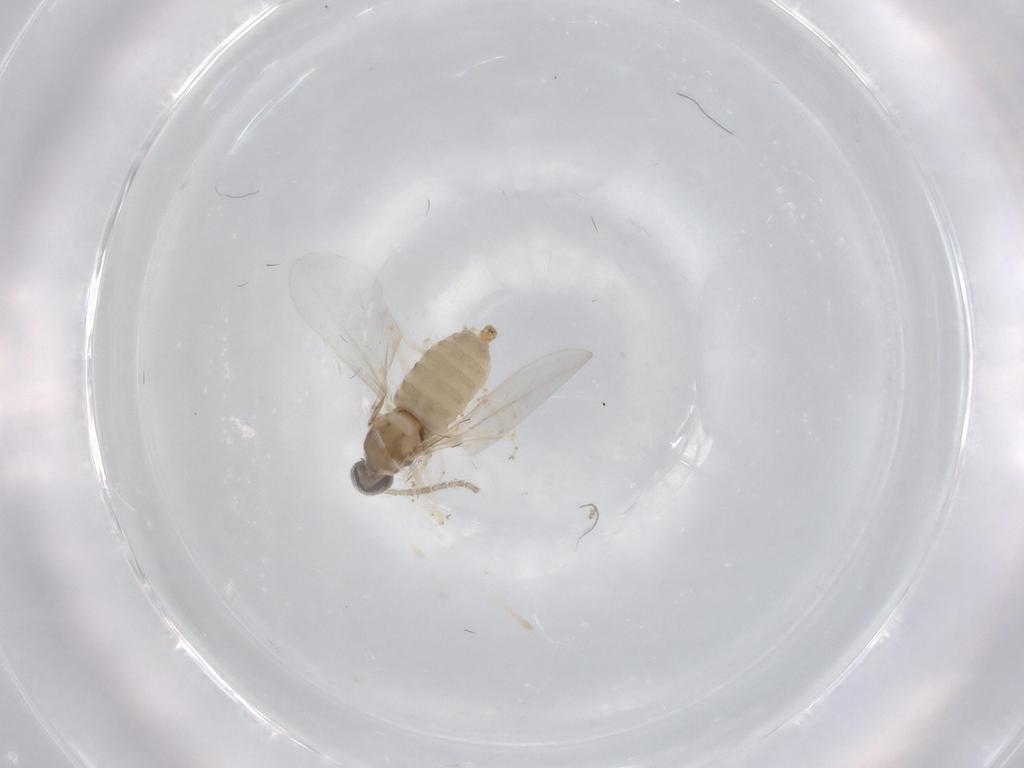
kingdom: Animalia
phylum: Arthropoda
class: Insecta
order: Diptera
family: Cecidomyiidae
